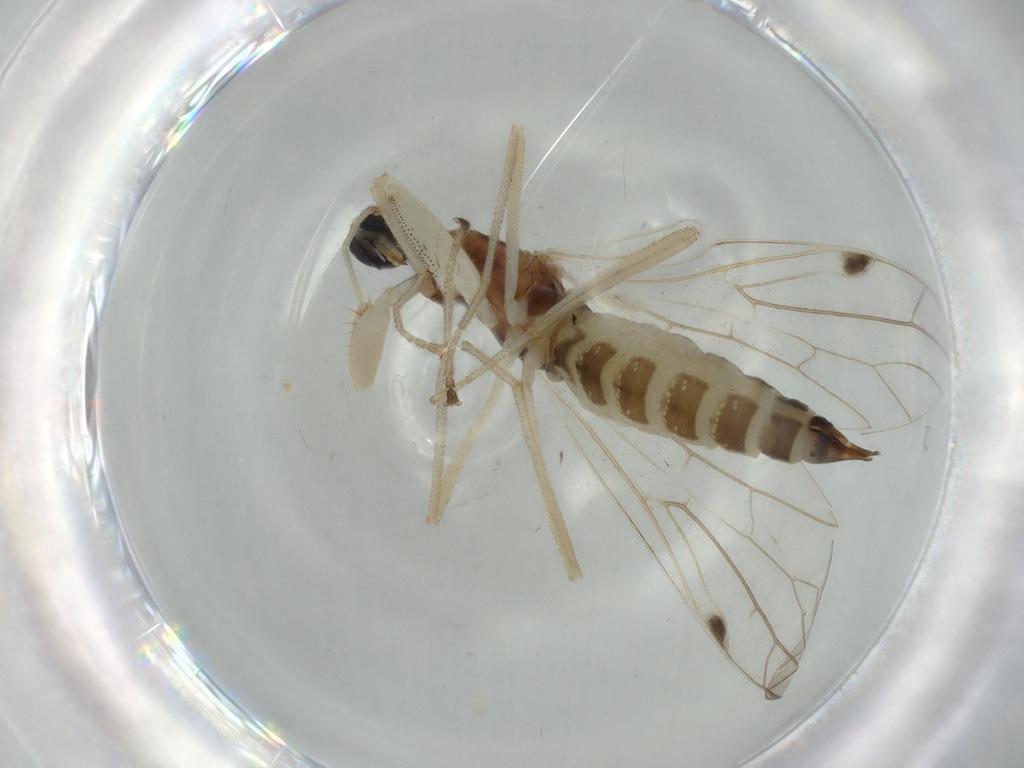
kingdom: Animalia
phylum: Arthropoda
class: Insecta
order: Diptera
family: Chironomidae
